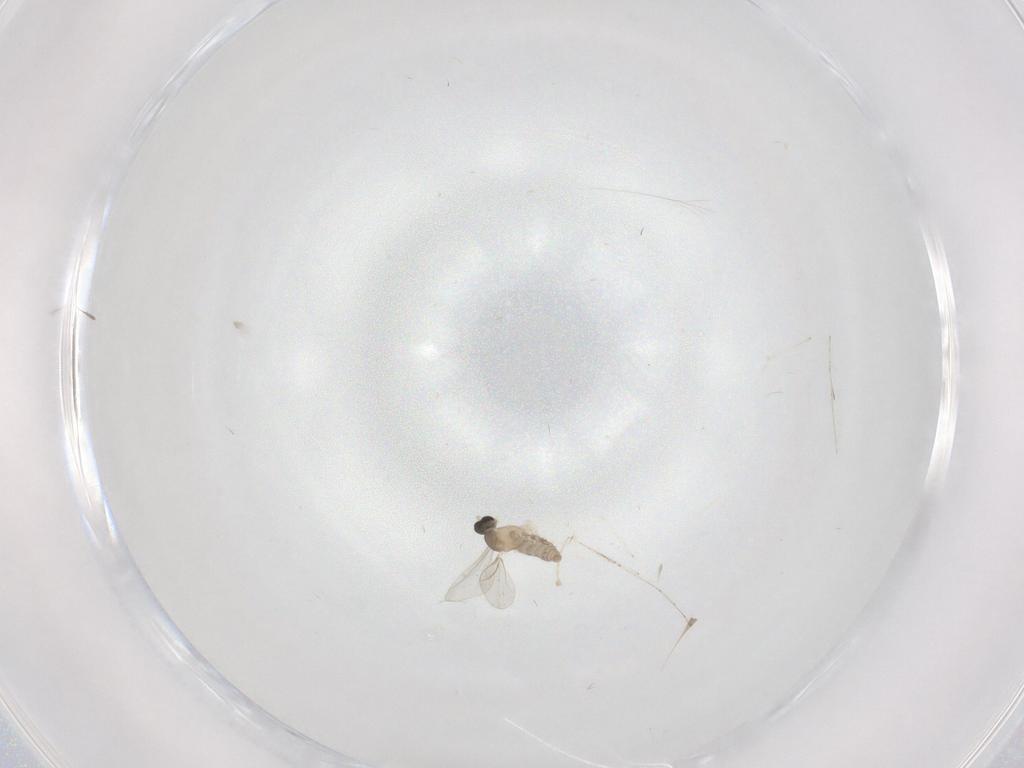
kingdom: Animalia
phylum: Arthropoda
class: Insecta
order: Diptera
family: Cecidomyiidae
